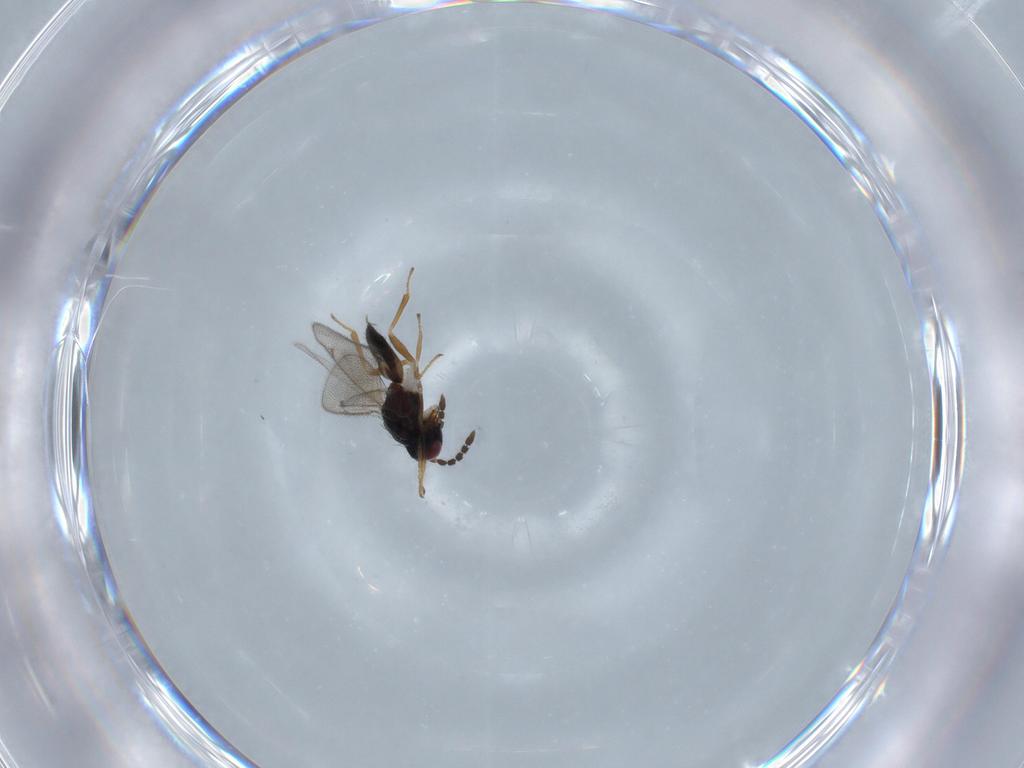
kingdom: Animalia
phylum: Arthropoda
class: Insecta
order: Hymenoptera
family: Eulophidae
